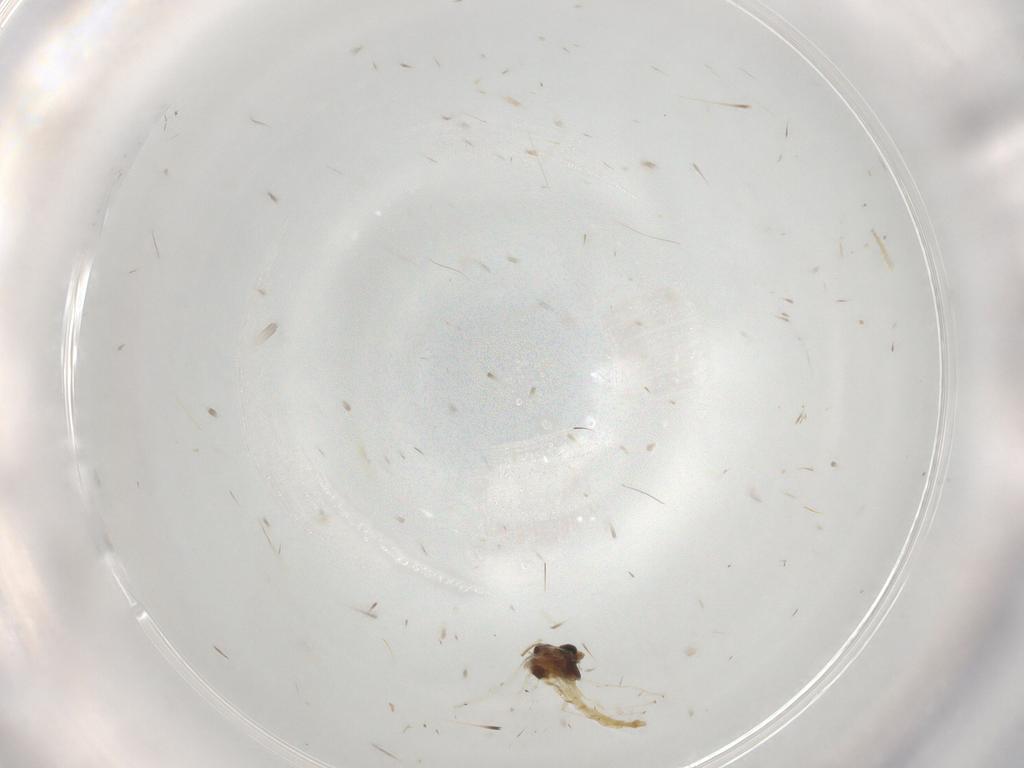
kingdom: Animalia
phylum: Arthropoda
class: Insecta
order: Diptera
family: Chironomidae
